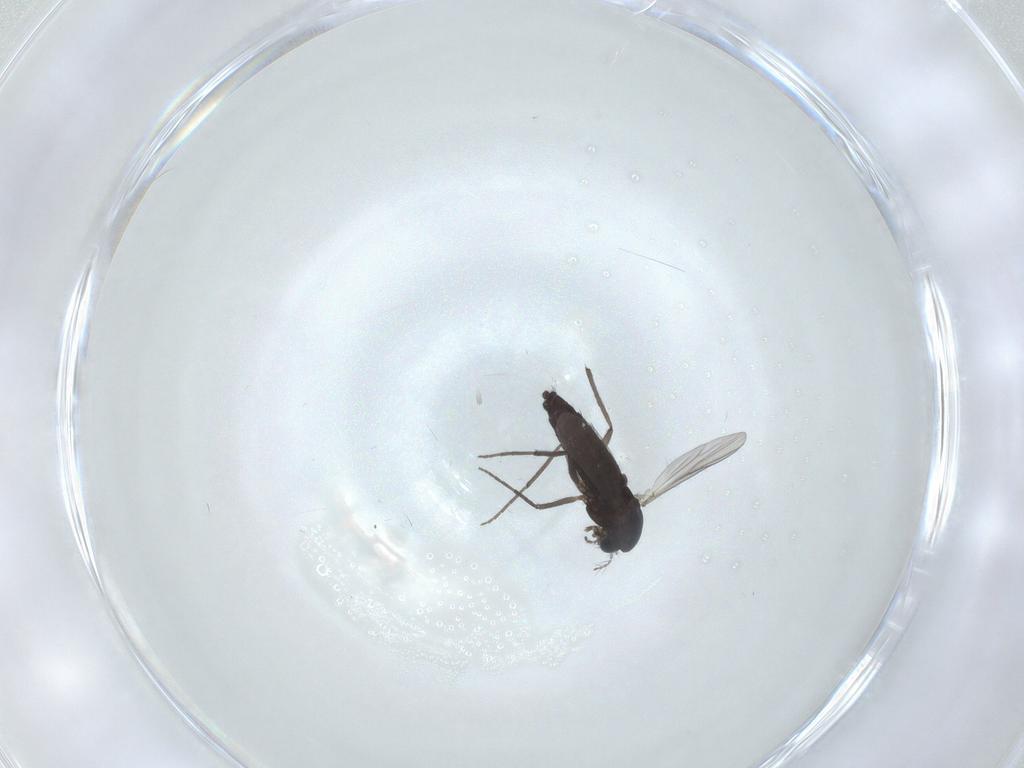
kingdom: Animalia
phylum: Arthropoda
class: Insecta
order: Diptera
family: Chironomidae
